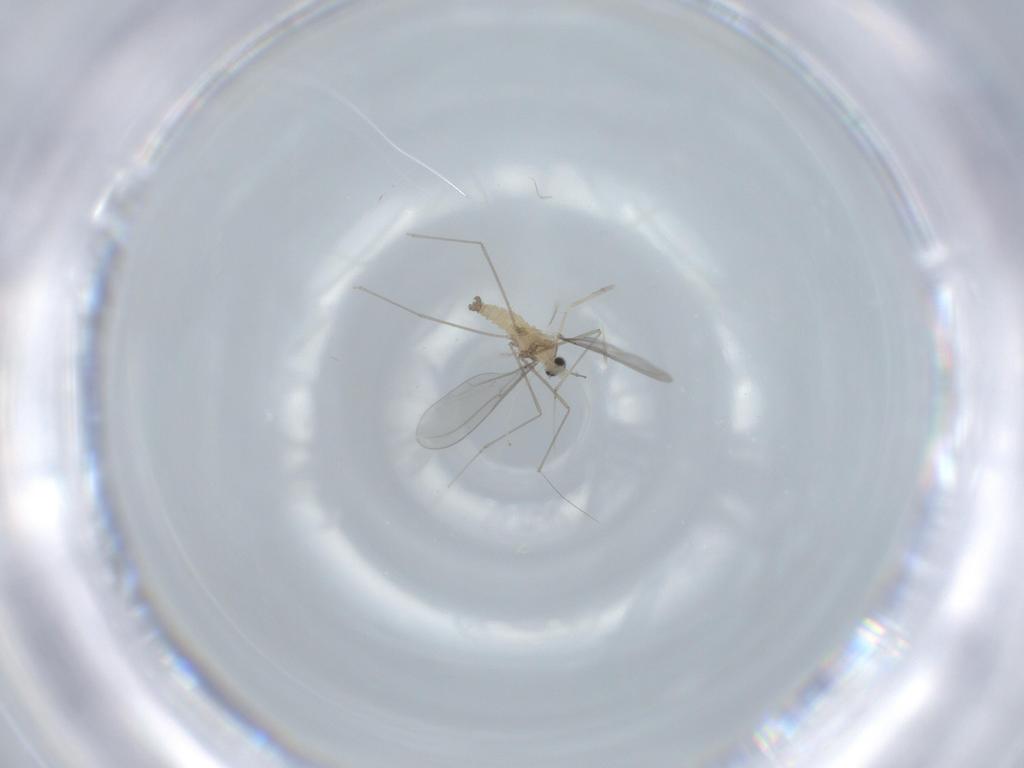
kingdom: Animalia
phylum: Arthropoda
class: Insecta
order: Diptera
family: Cecidomyiidae
